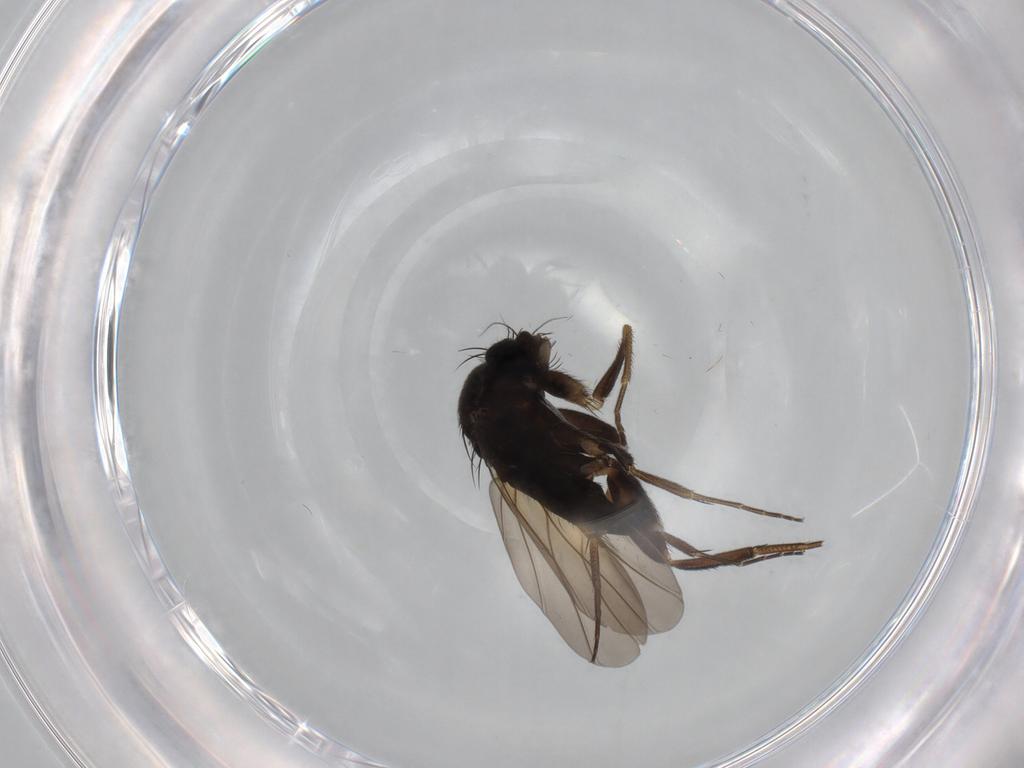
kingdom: Animalia
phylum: Arthropoda
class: Insecta
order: Diptera
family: Phoridae
